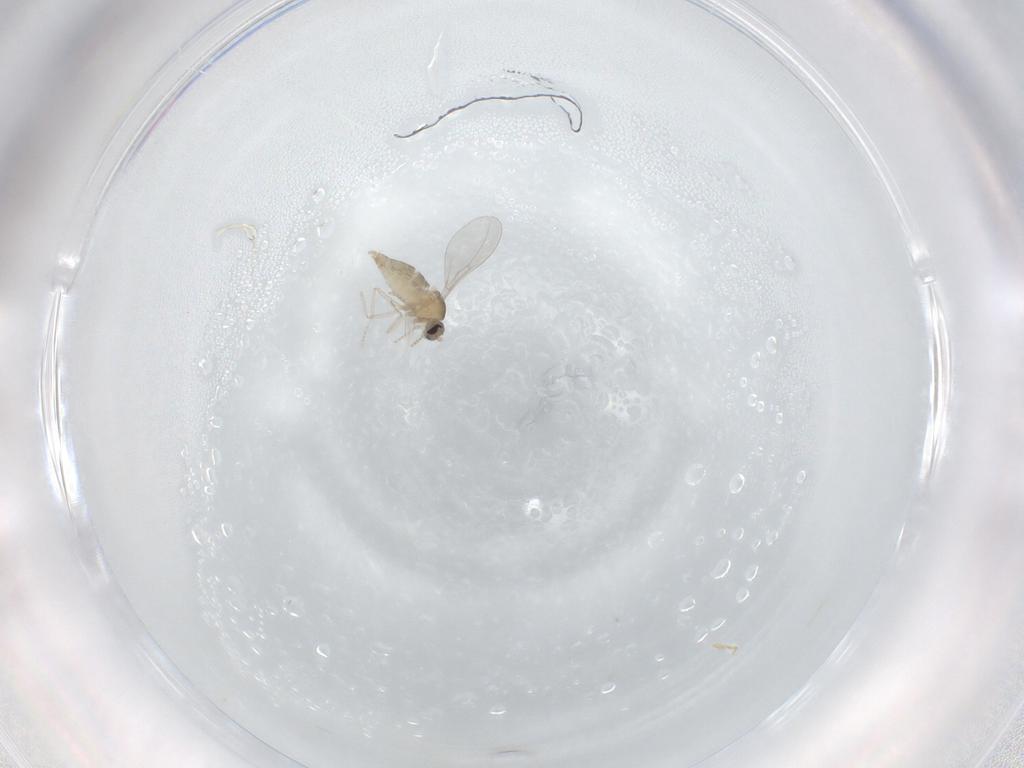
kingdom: Animalia
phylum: Arthropoda
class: Insecta
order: Diptera
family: Cecidomyiidae
